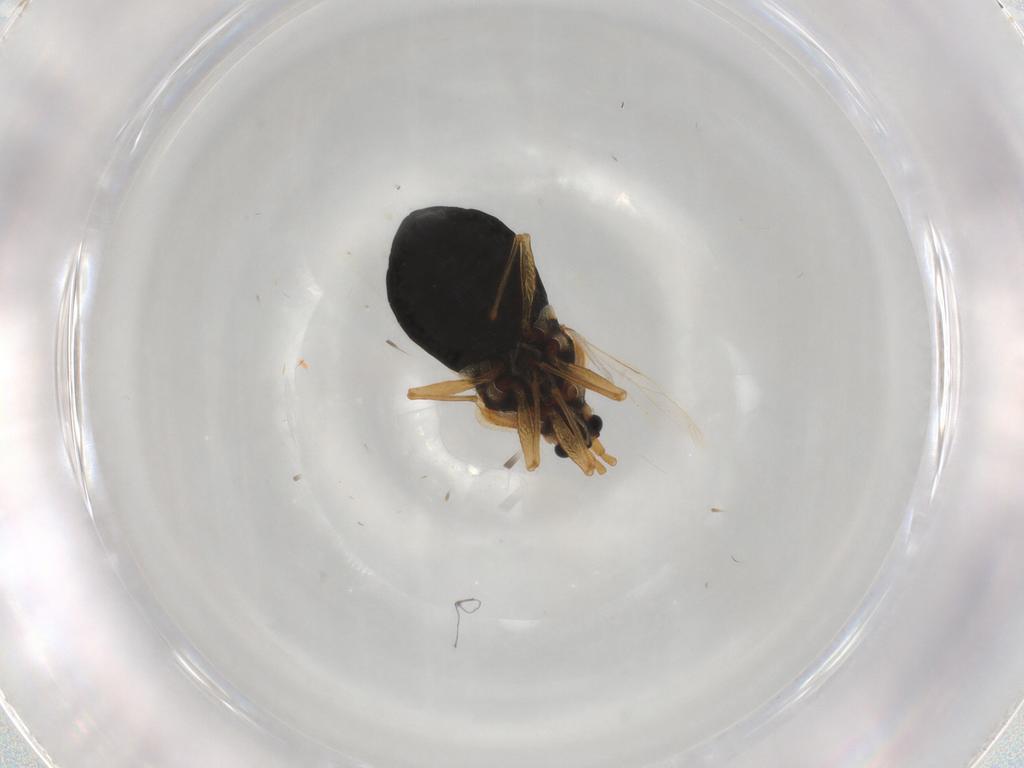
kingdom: Animalia
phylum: Arthropoda
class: Insecta
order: Hemiptera
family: Tingidae
